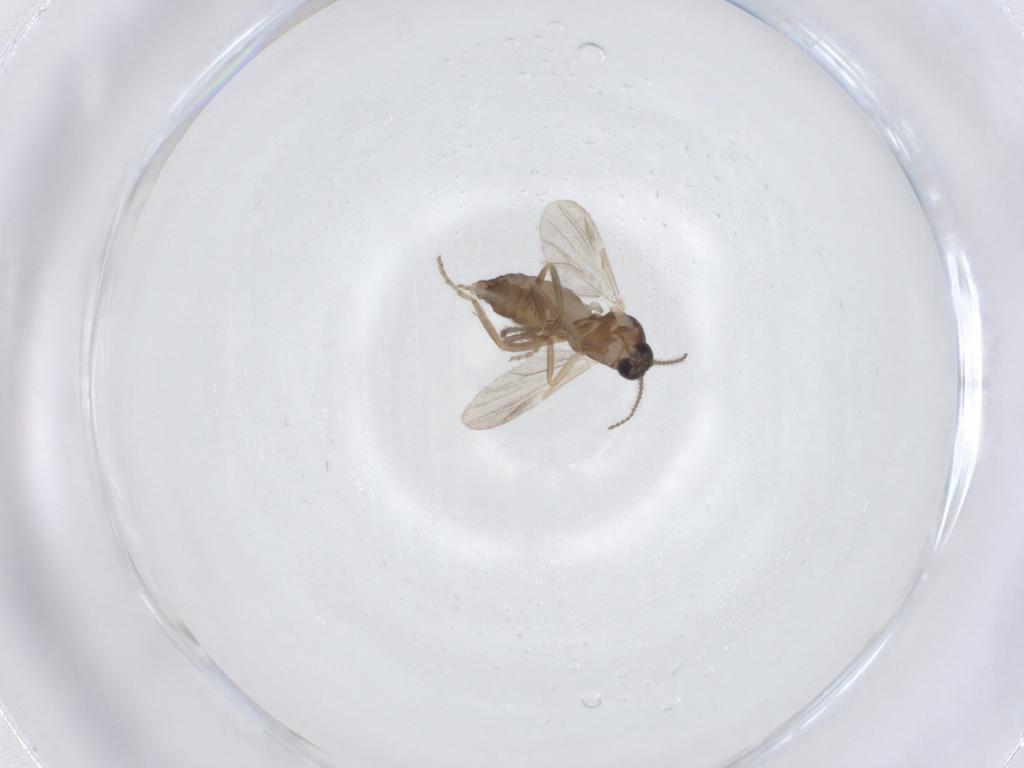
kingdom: Animalia
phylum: Arthropoda
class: Insecta
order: Diptera
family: Ceratopogonidae
